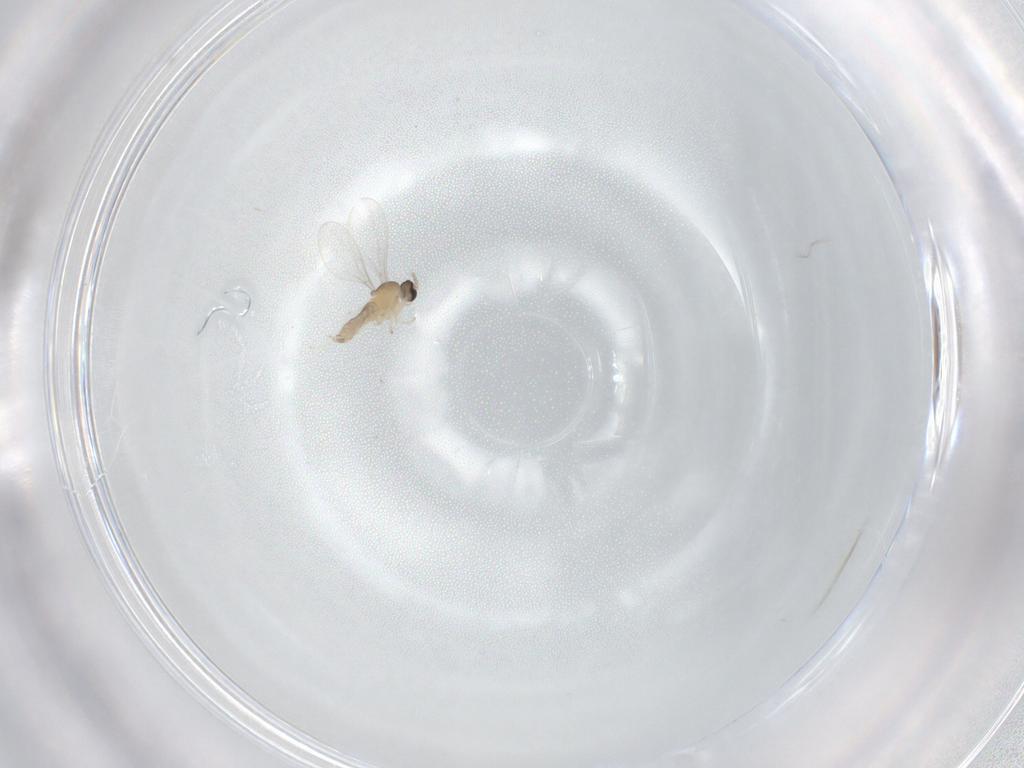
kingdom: Animalia
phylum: Arthropoda
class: Insecta
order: Diptera
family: Cecidomyiidae
